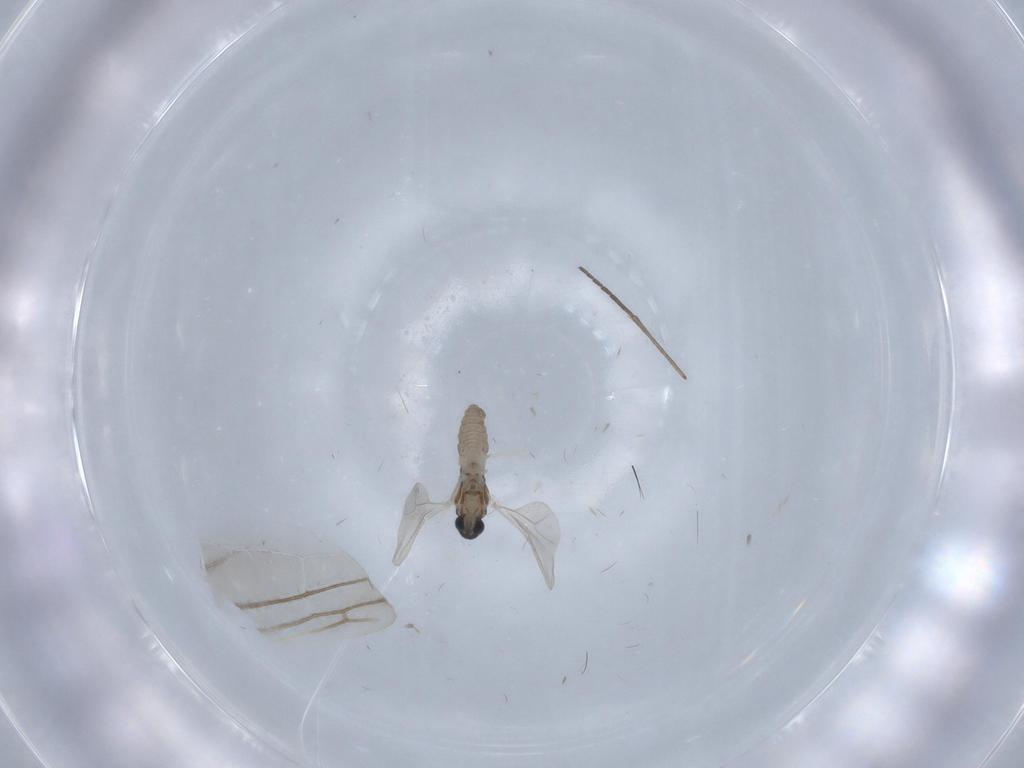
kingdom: Animalia
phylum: Arthropoda
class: Insecta
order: Diptera
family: Cecidomyiidae
